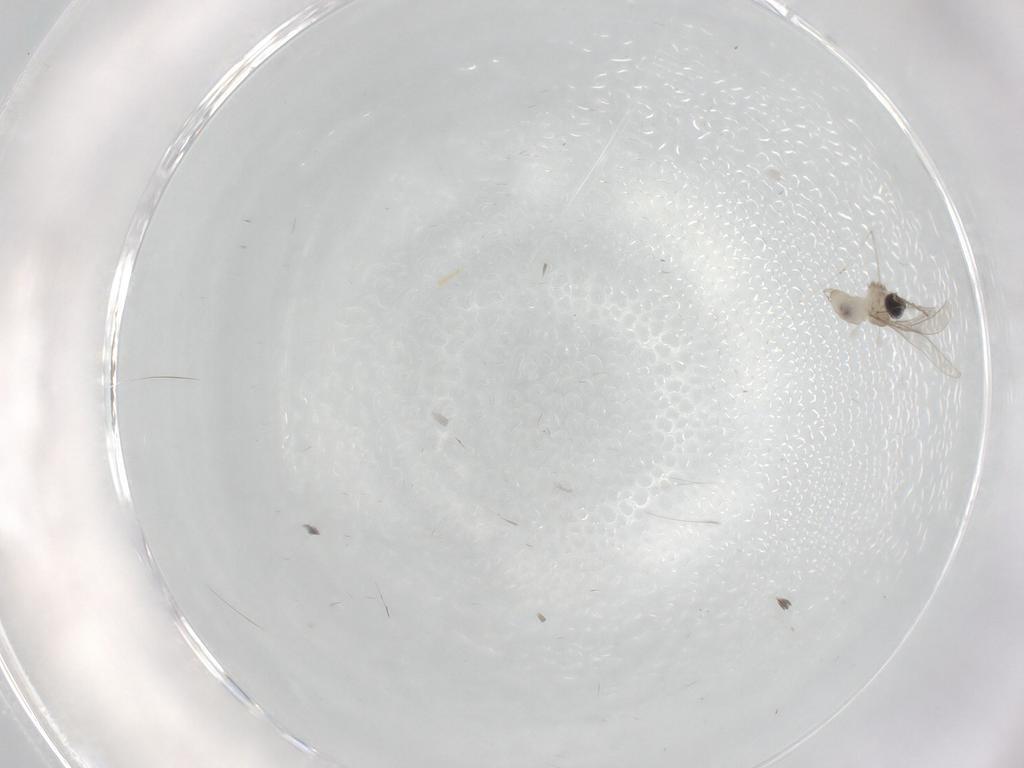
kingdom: Animalia
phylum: Arthropoda
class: Insecta
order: Diptera
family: Cecidomyiidae
